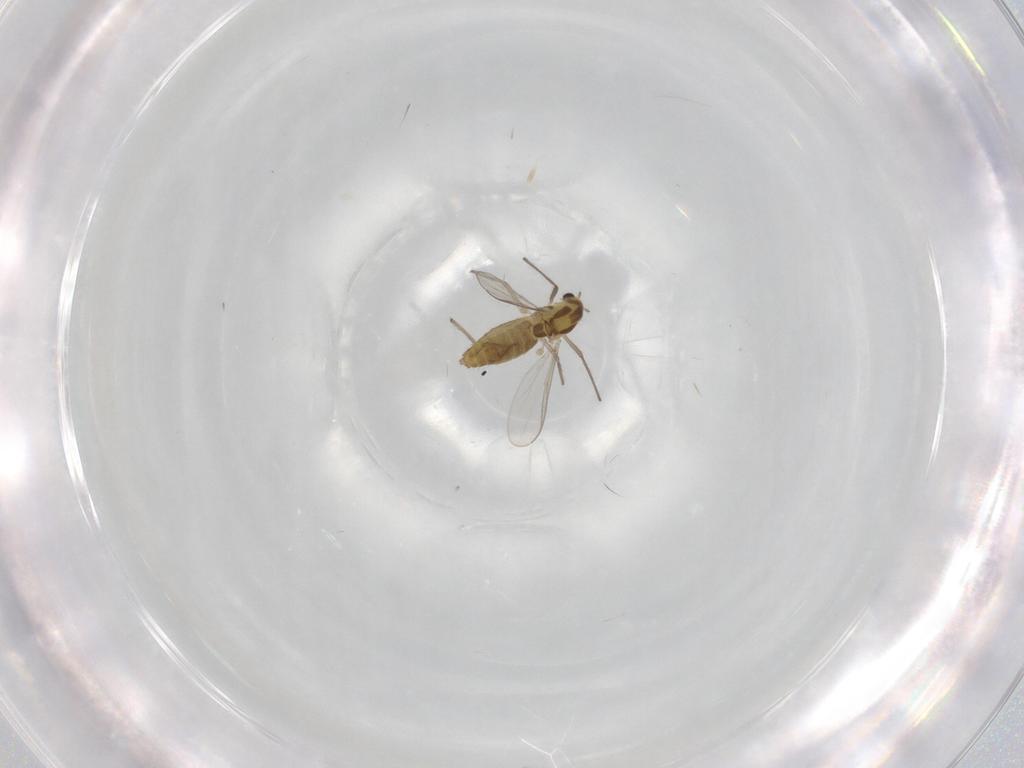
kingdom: Animalia
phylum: Arthropoda
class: Insecta
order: Diptera
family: Chironomidae
